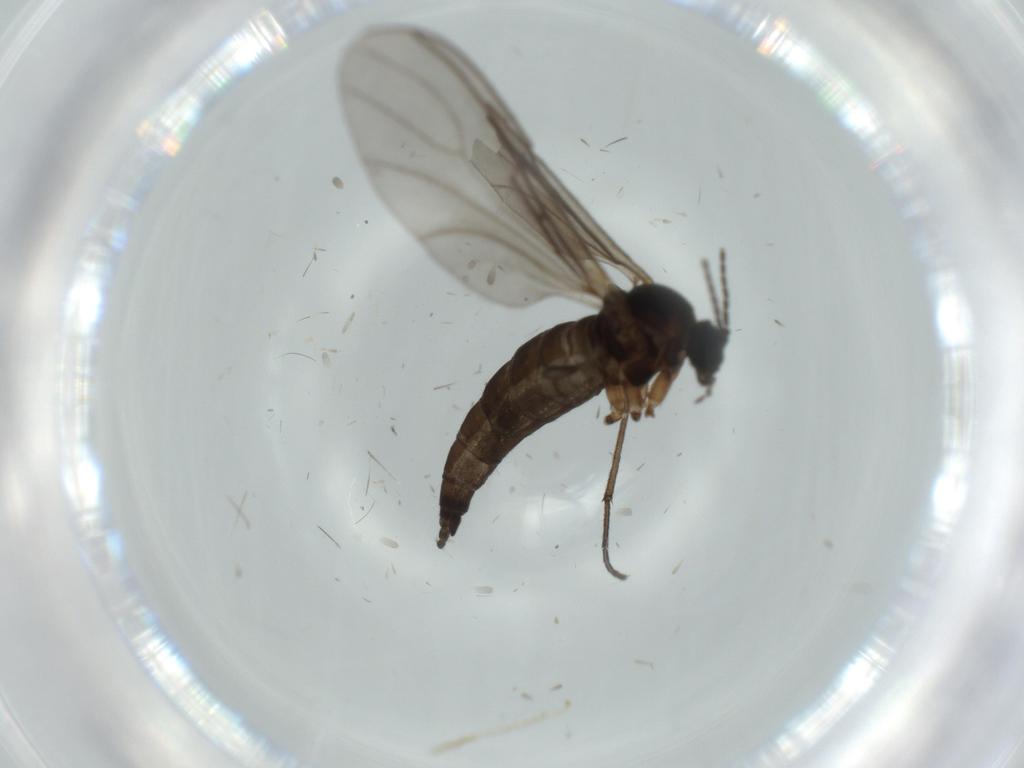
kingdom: Animalia
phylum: Arthropoda
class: Insecta
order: Diptera
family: Sciaridae
